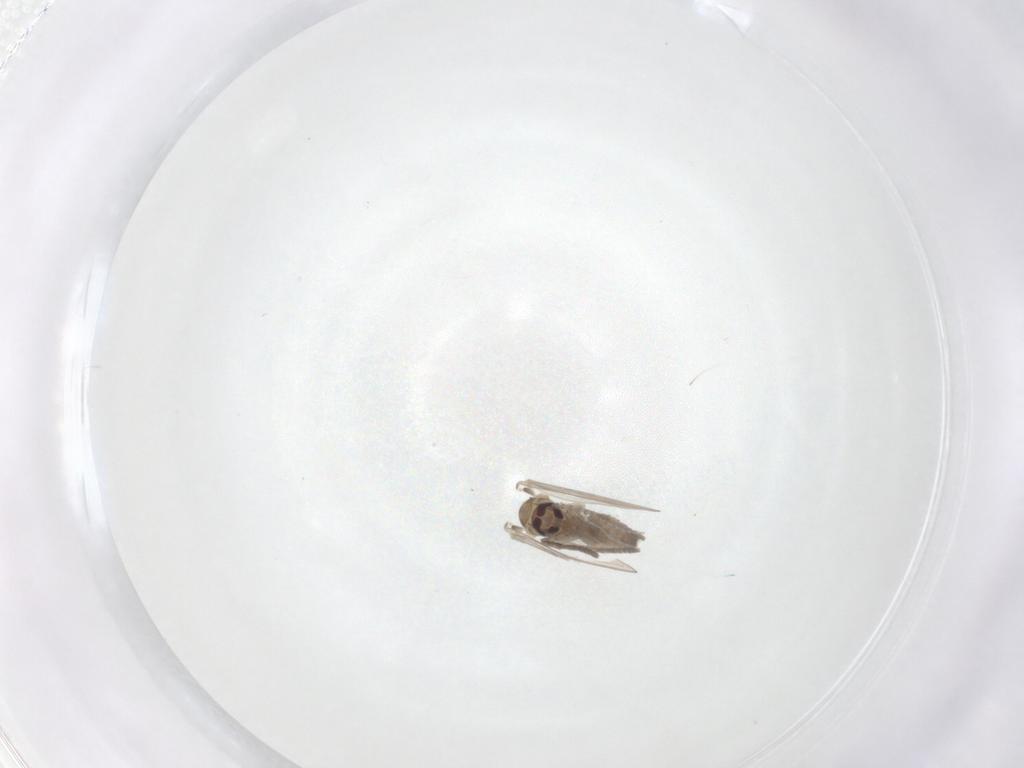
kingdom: Animalia
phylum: Arthropoda
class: Insecta
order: Diptera
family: Psychodidae
